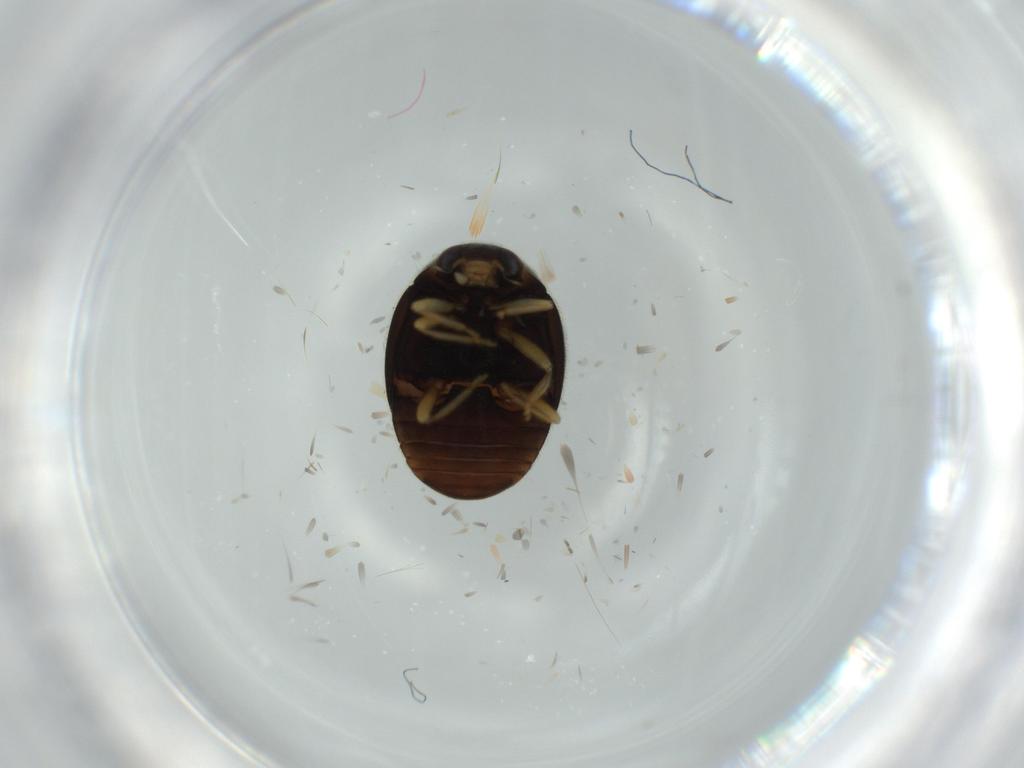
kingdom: Animalia
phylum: Arthropoda
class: Insecta
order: Coleoptera
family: Coccinellidae
